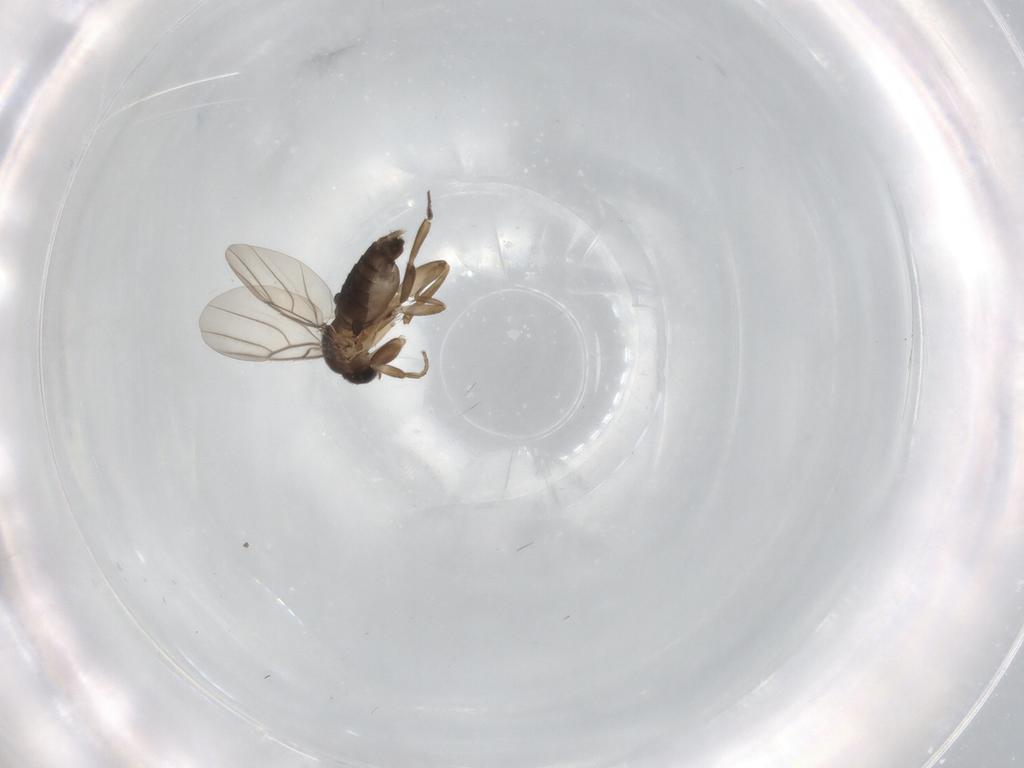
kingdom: Animalia
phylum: Arthropoda
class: Insecta
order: Diptera
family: Phoridae
